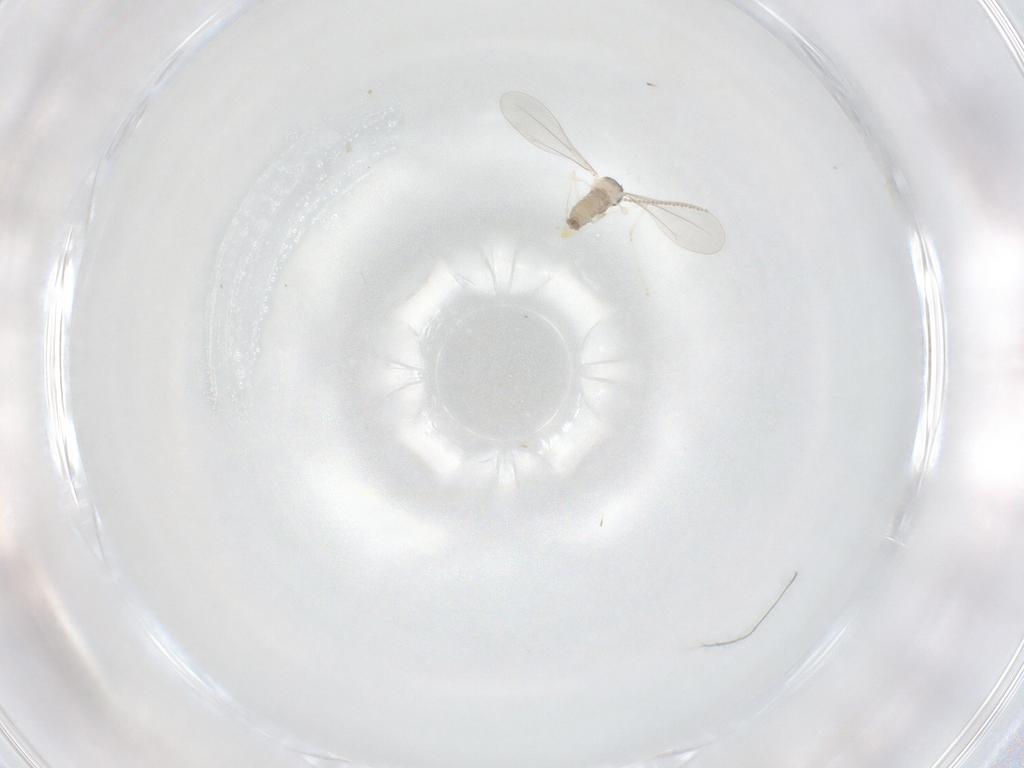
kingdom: Animalia
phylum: Arthropoda
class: Insecta
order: Diptera
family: Cecidomyiidae
